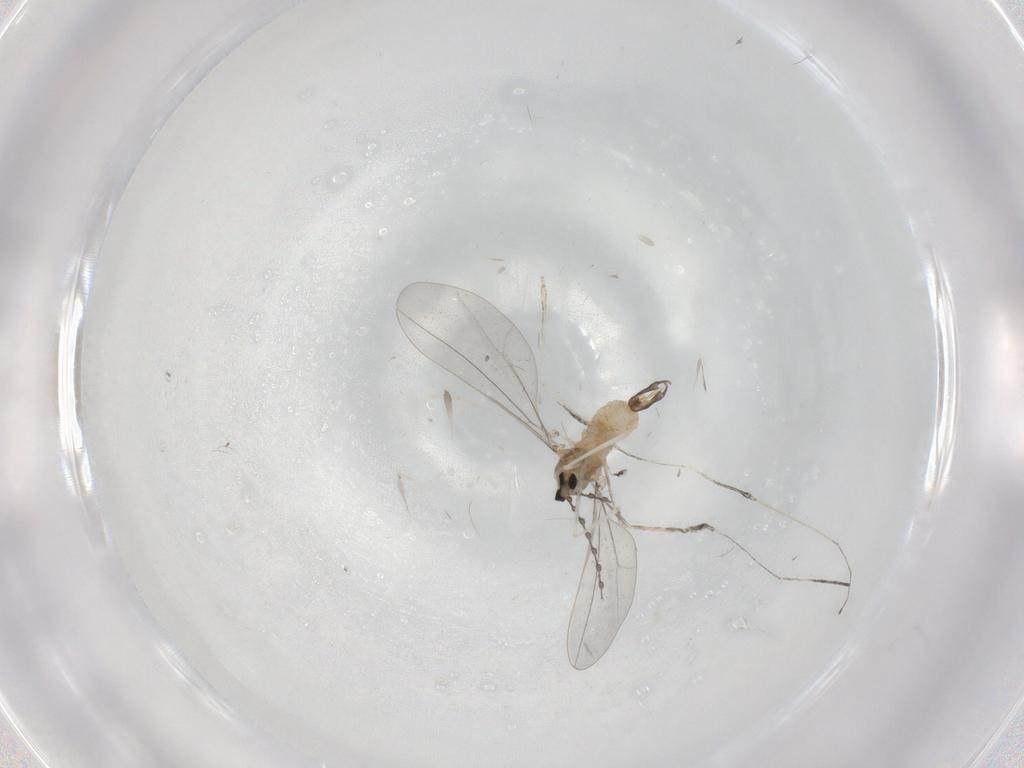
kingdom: Animalia
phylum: Arthropoda
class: Insecta
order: Diptera
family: Cecidomyiidae
